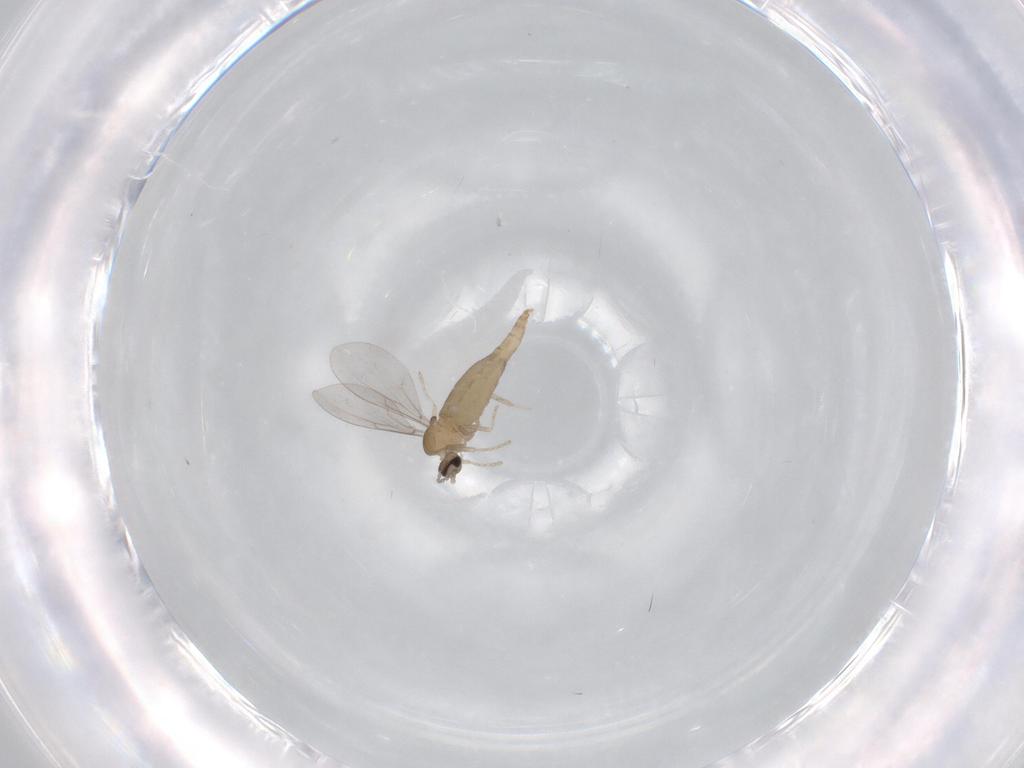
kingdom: Animalia
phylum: Arthropoda
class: Insecta
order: Diptera
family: Cecidomyiidae
